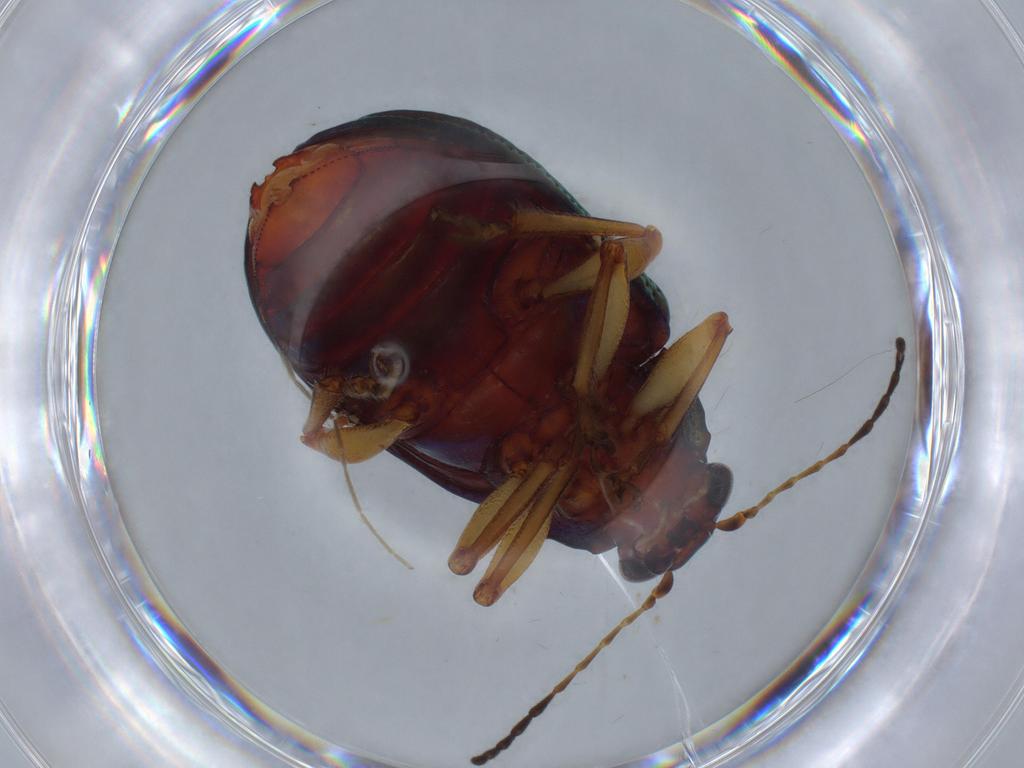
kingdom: Animalia
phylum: Arthropoda
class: Insecta
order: Coleoptera
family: Chrysomelidae
